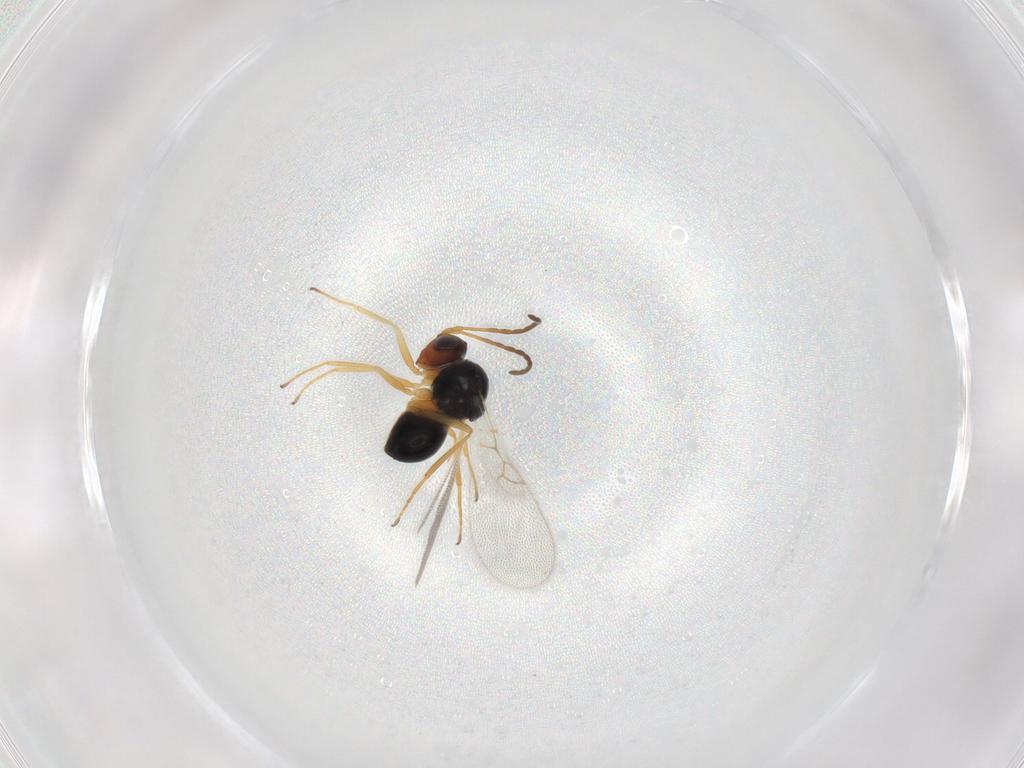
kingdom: Animalia
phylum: Arthropoda
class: Insecta
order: Hymenoptera
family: Figitidae
